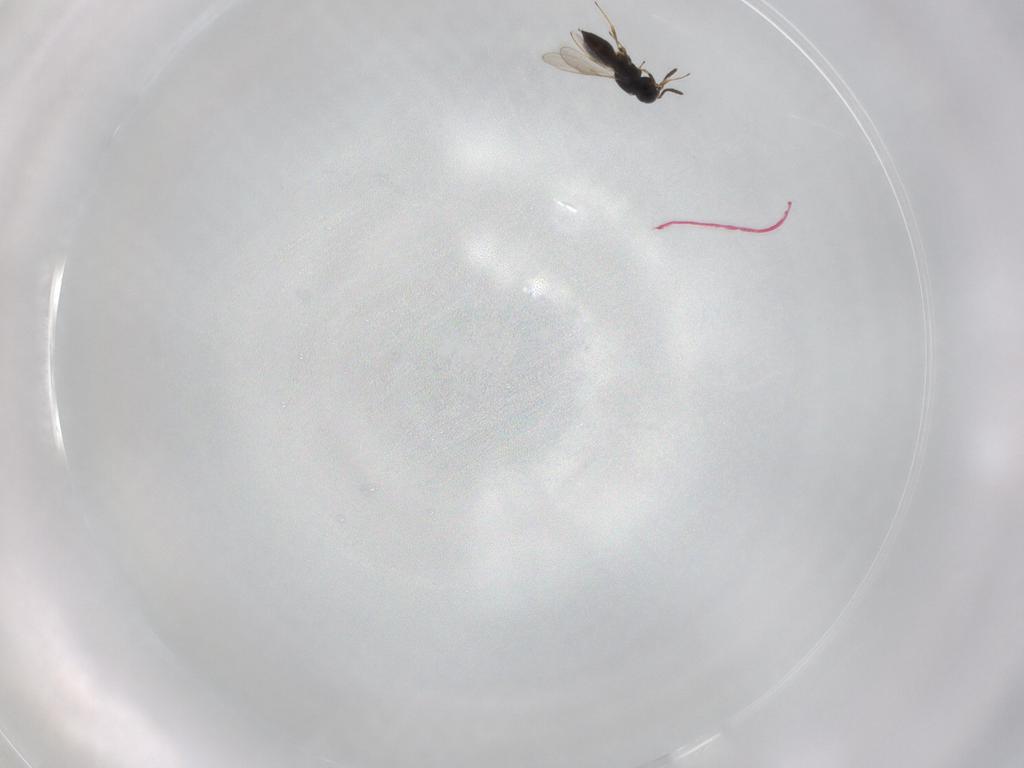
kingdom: Animalia
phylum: Arthropoda
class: Insecta
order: Hymenoptera
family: Scelionidae
